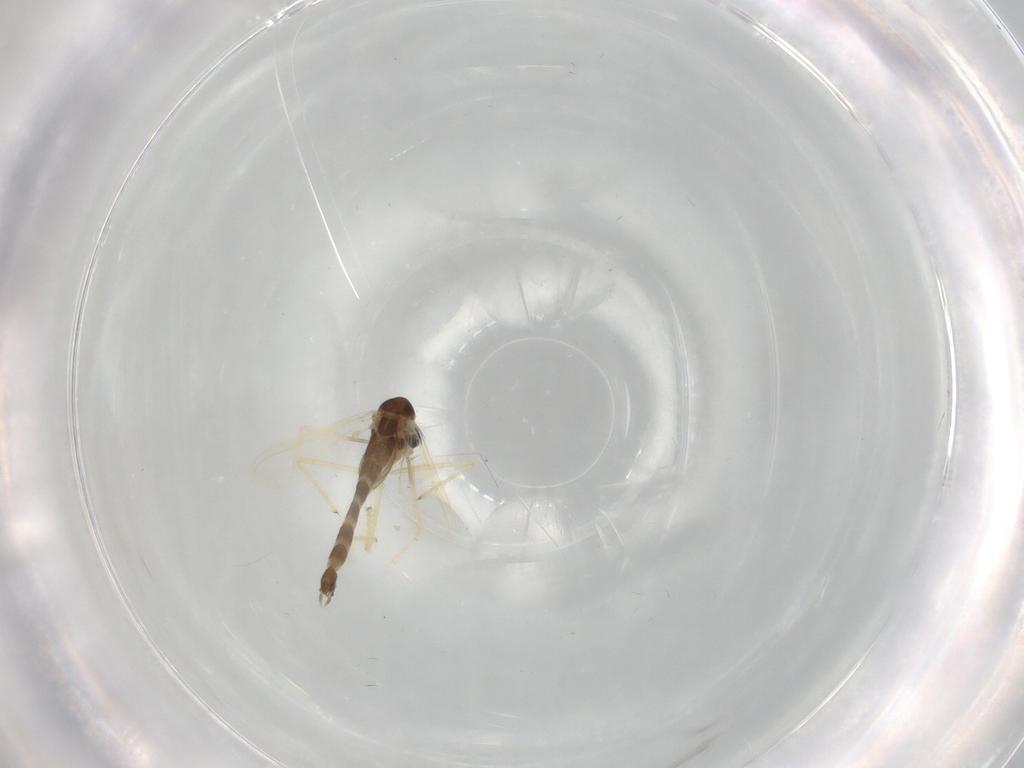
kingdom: Animalia
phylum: Arthropoda
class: Insecta
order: Diptera
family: Chironomidae
